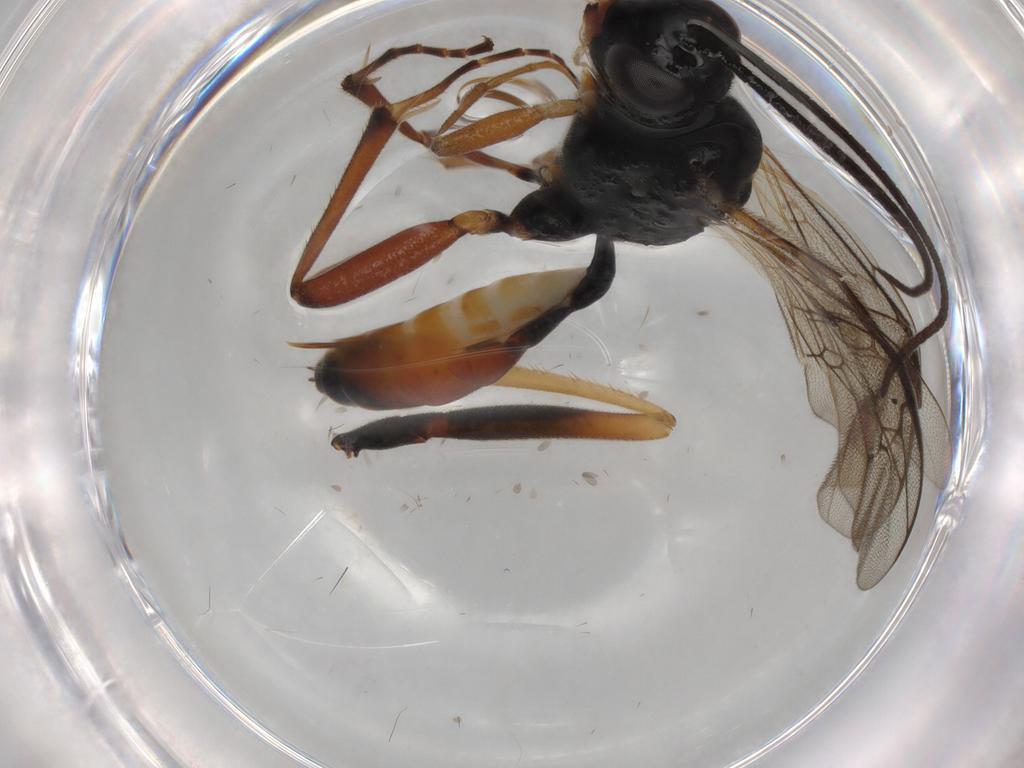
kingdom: Animalia
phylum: Arthropoda
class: Insecta
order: Hymenoptera
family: Ichneumonidae
